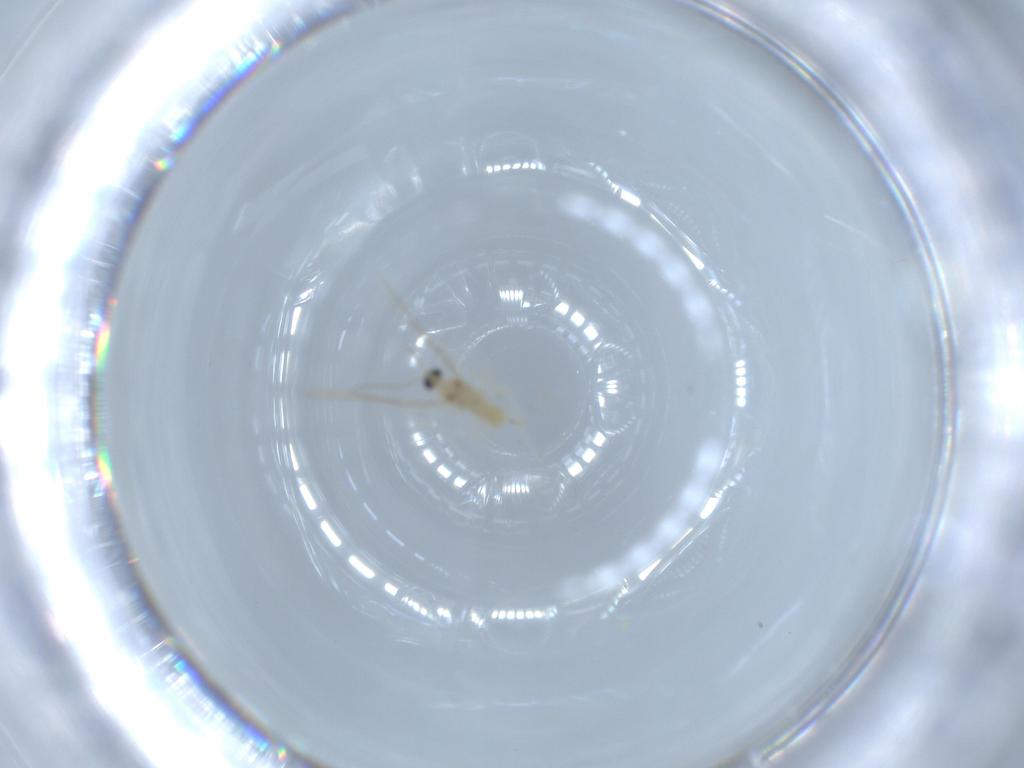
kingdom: Animalia
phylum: Arthropoda
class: Insecta
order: Diptera
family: Cecidomyiidae
